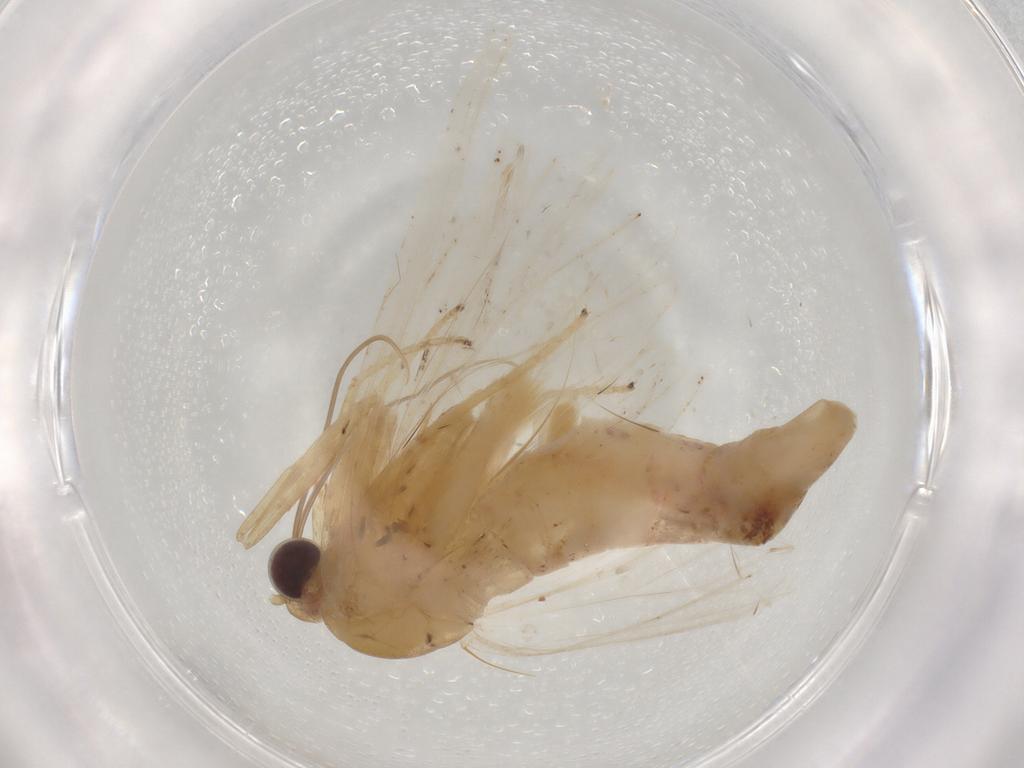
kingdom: Animalia
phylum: Arthropoda
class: Insecta
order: Lepidoptera
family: Geometridae
